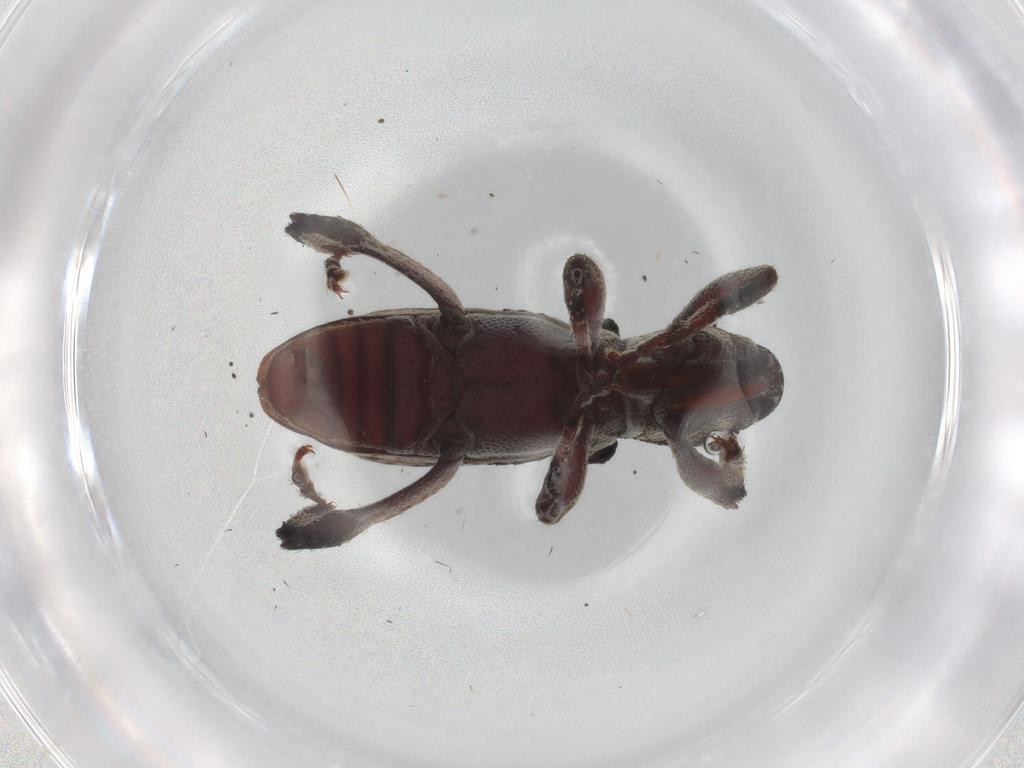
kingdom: Animalia
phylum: Arthropoda
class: Insecta
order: Coleoptera
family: Curculionidae
